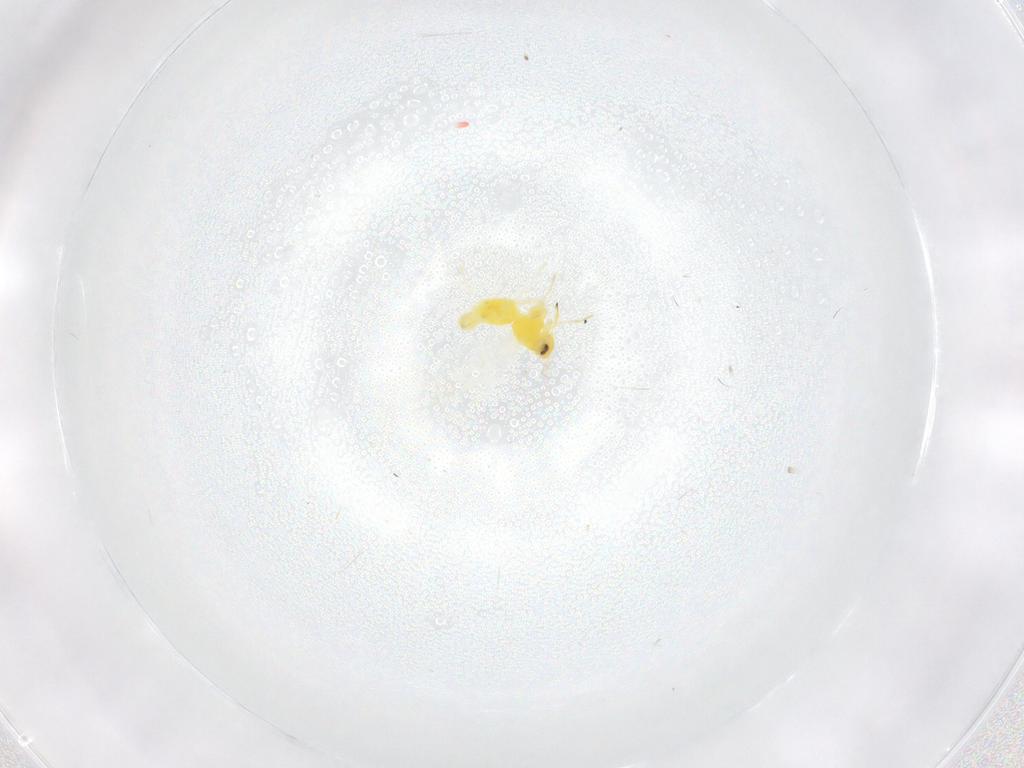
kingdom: Animalia
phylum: Arthropoda
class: Insecta
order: Hemiptera
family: Aleyrodidae
